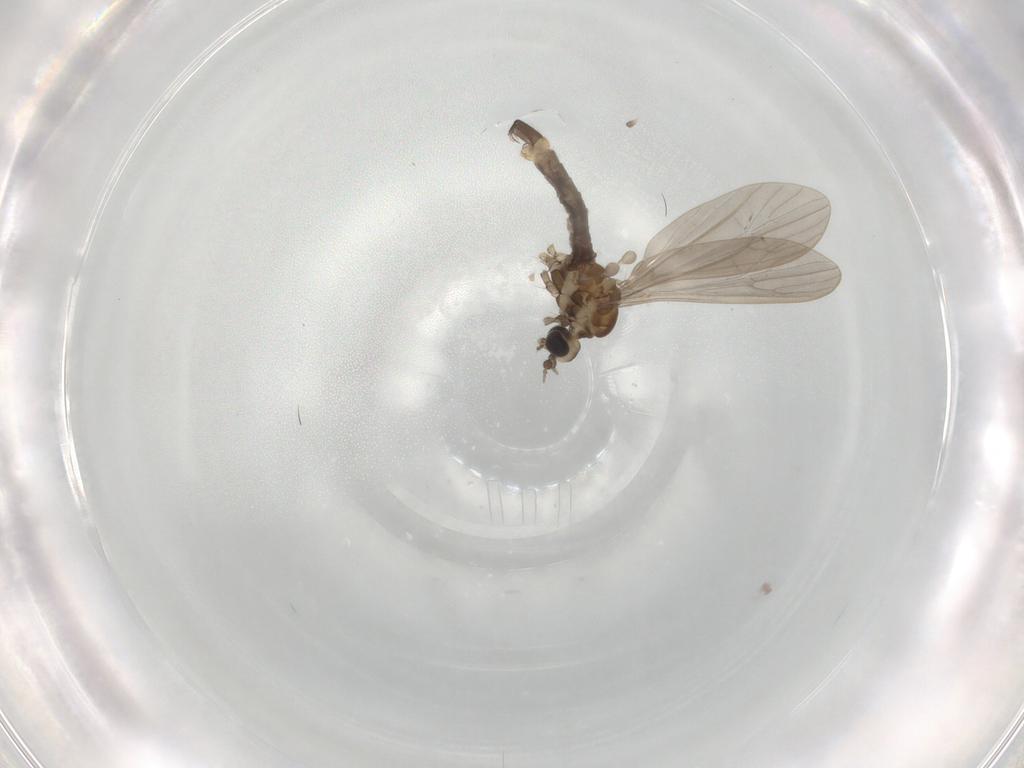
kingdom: Animalia
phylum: Arthropoda
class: Insecta
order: Diptera
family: Limoniidae
